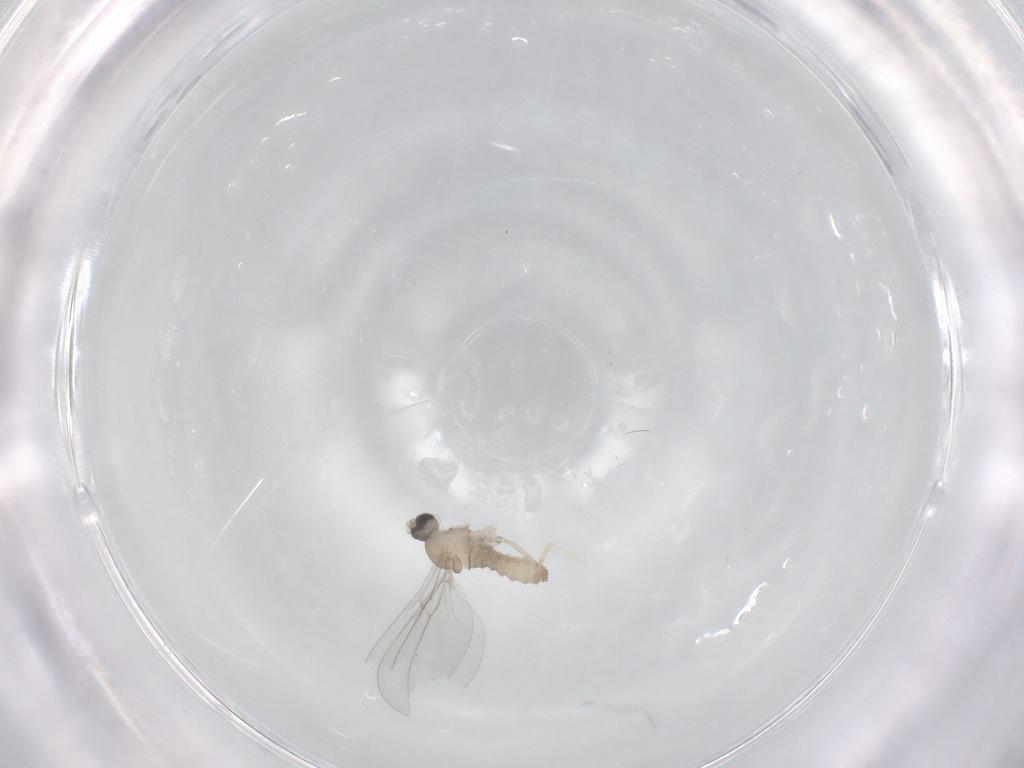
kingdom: Animalia
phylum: Arthropoda
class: Insecta
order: Diptera
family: Cecidomyiidae
